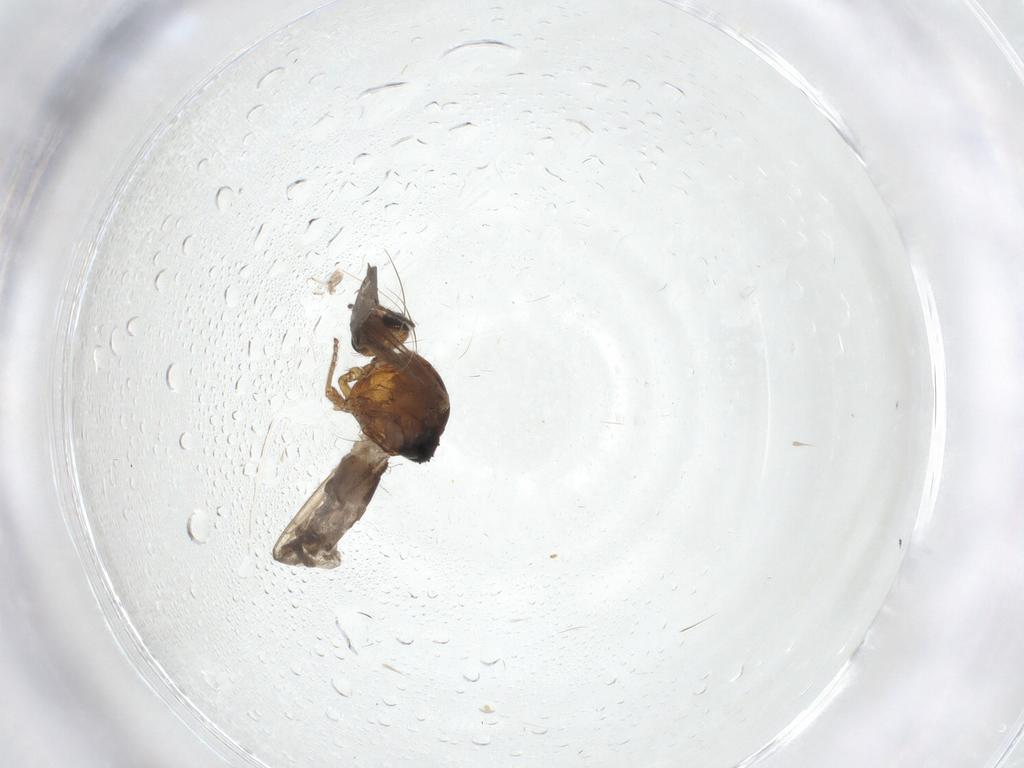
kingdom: Animalia
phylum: Arthropoda
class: Insecta
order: Diptera
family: Ceratopogonidae
